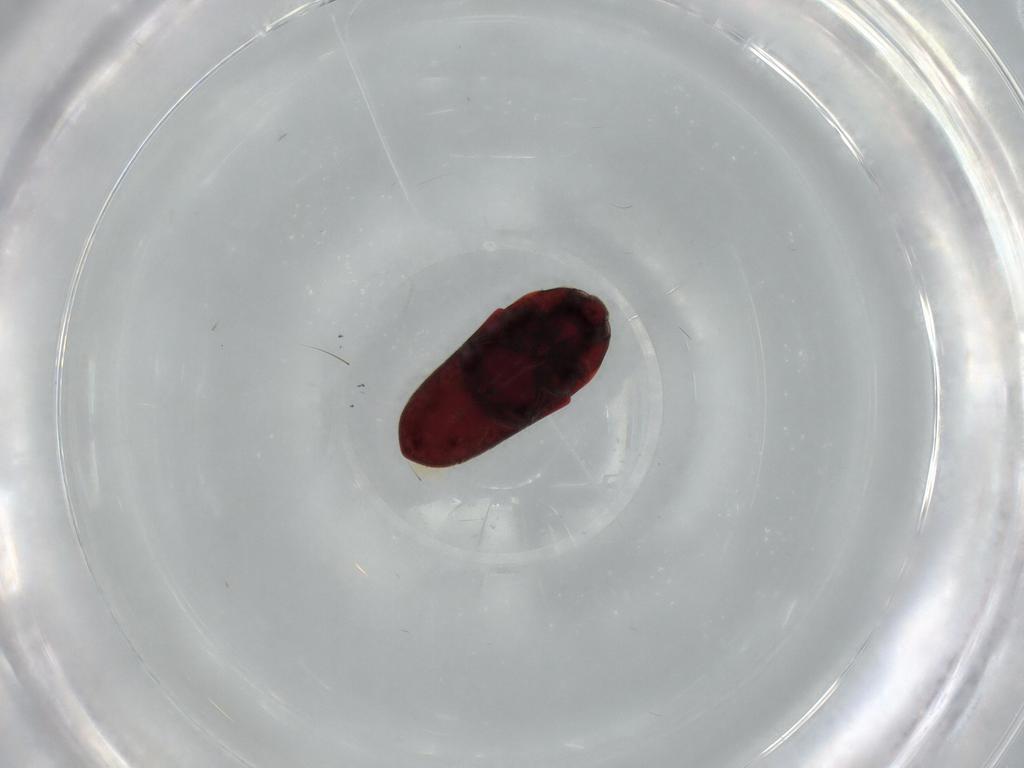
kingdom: Animalia
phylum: Arthropoda
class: Insecta
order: Coleoptera
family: Throscidae
